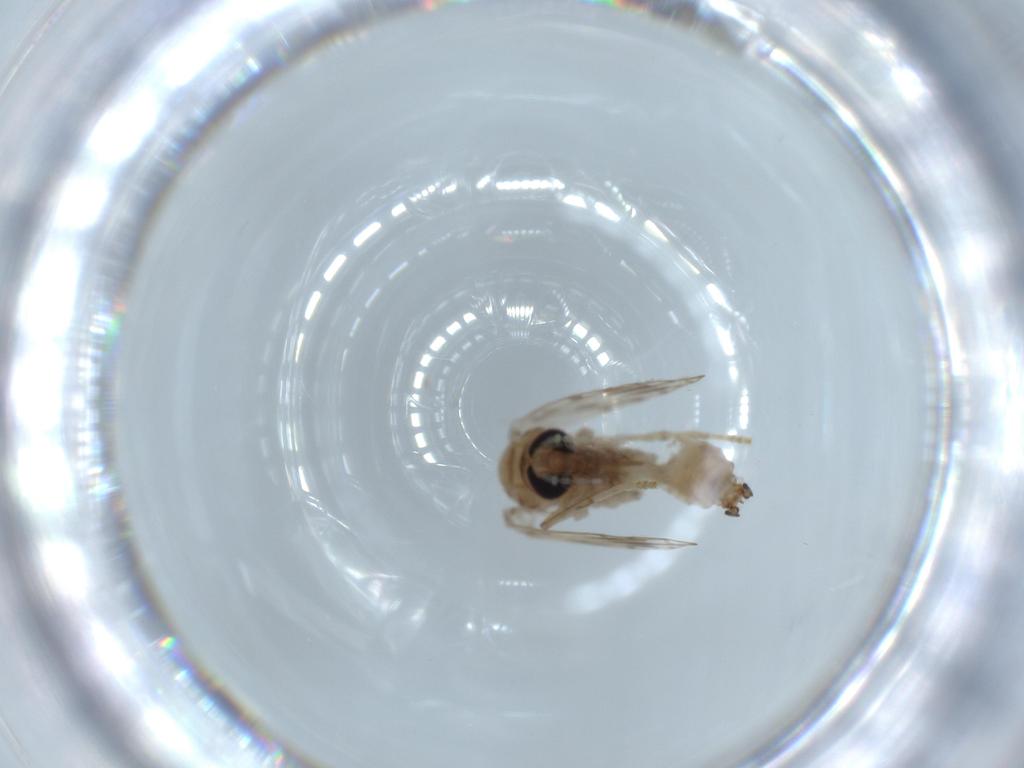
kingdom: Animalia
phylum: Arthropoda
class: Insecta
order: Diptera
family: Psychodidae
